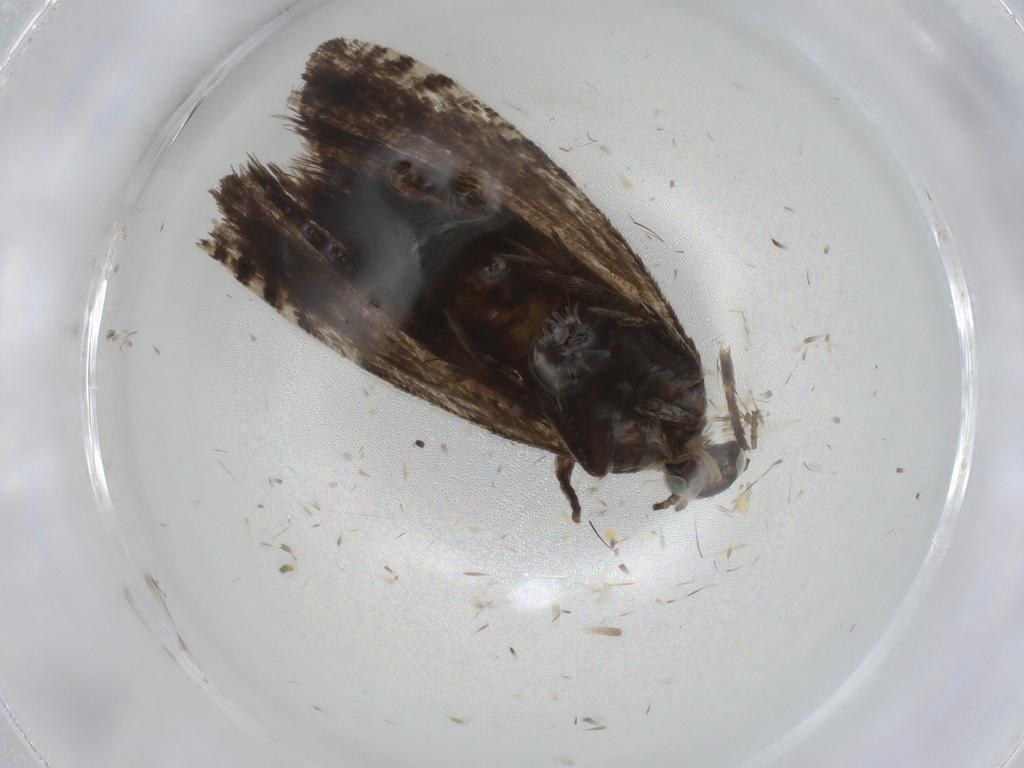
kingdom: Animalia
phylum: Arthropoda
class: Insecta
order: Lepidoptera
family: Tortricidae
